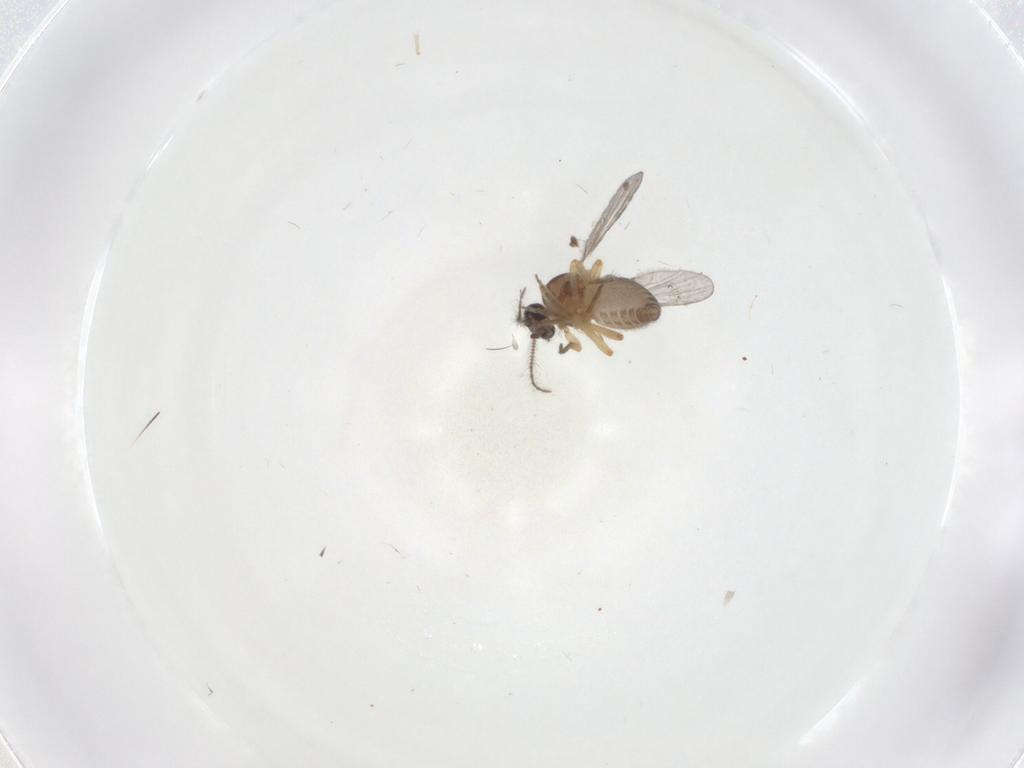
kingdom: Animalia
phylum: Arthropoda
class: Insecta
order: Diptera
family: Ceratopogonidae
